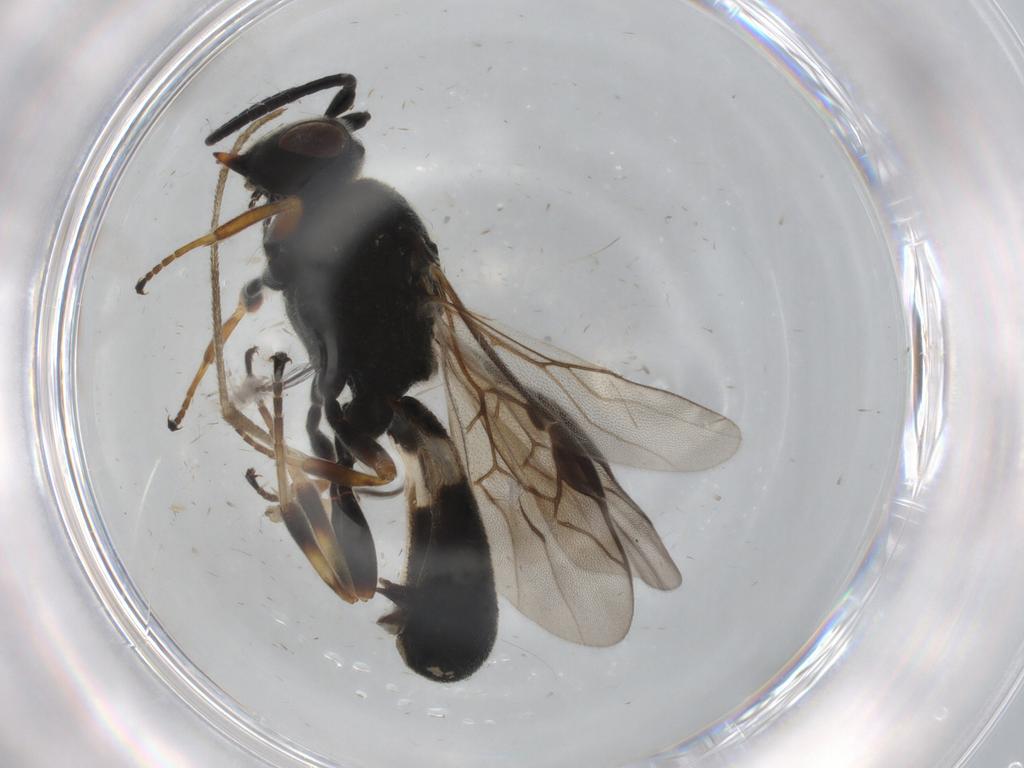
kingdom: Animalia
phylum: Arthropoda
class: Insecta
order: Hymenoptera
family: Braconidae
